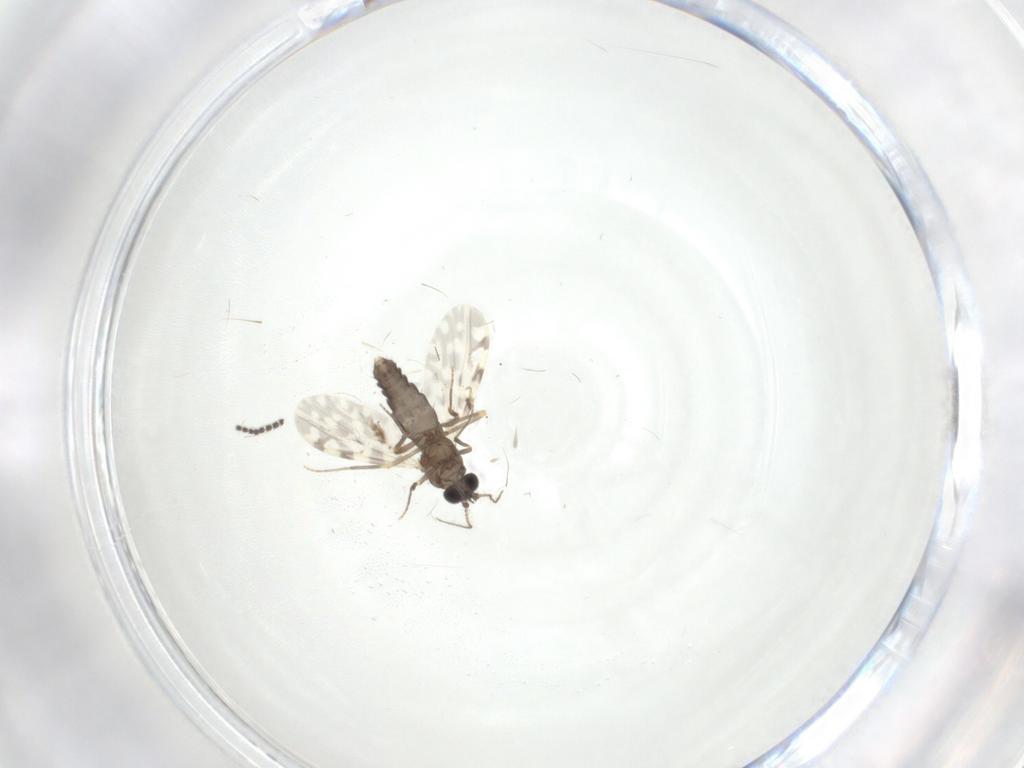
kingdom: Animalia
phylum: Arthropoda
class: Insecta
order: Diptera
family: Ceratopogonidae
